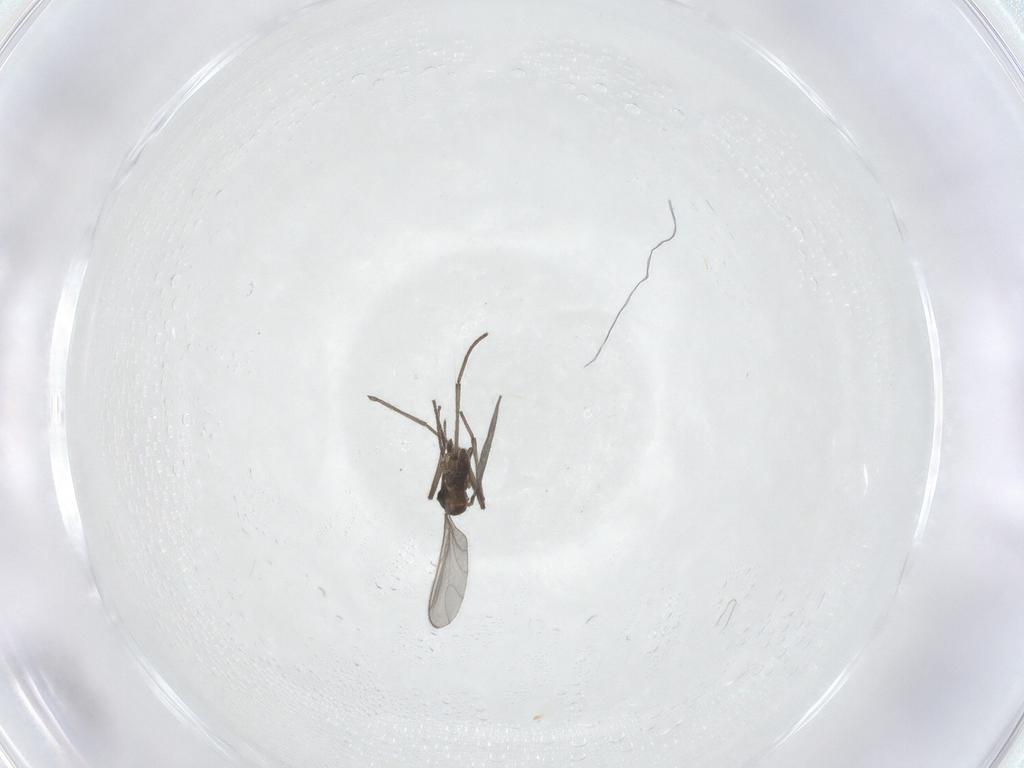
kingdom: Animalia
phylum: Arthropoda
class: Insecta
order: Diptera
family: Sciaridae
